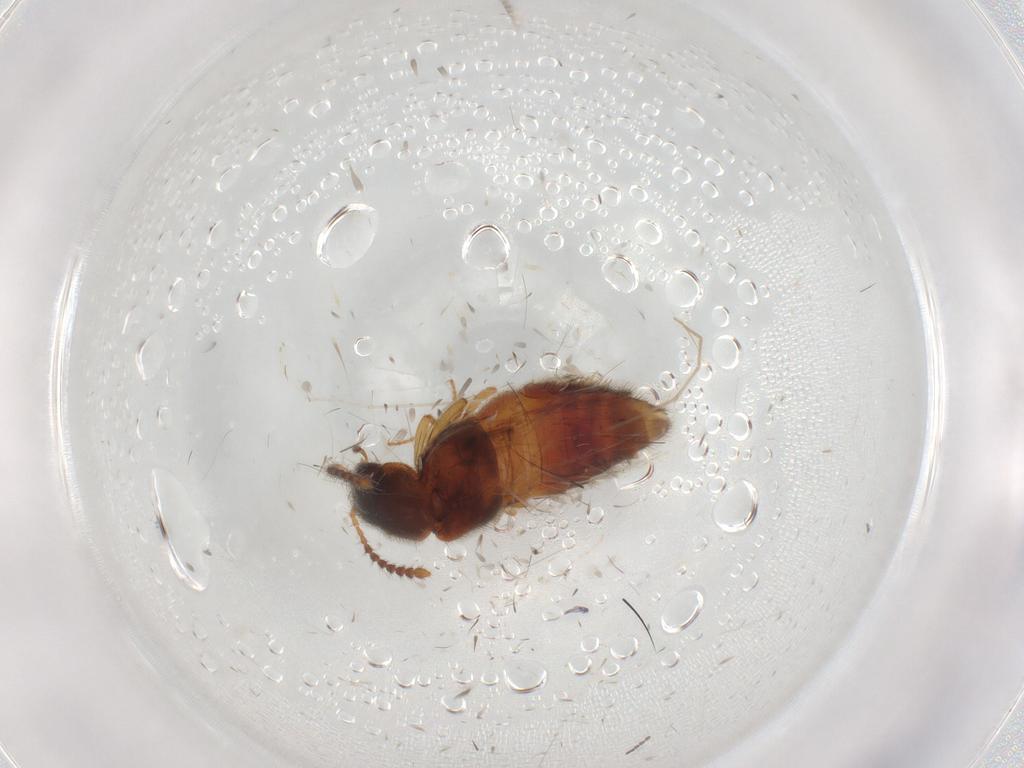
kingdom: Animalia
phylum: Arthropoda
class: Insecta
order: Coleoptera
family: Staphylinidae
